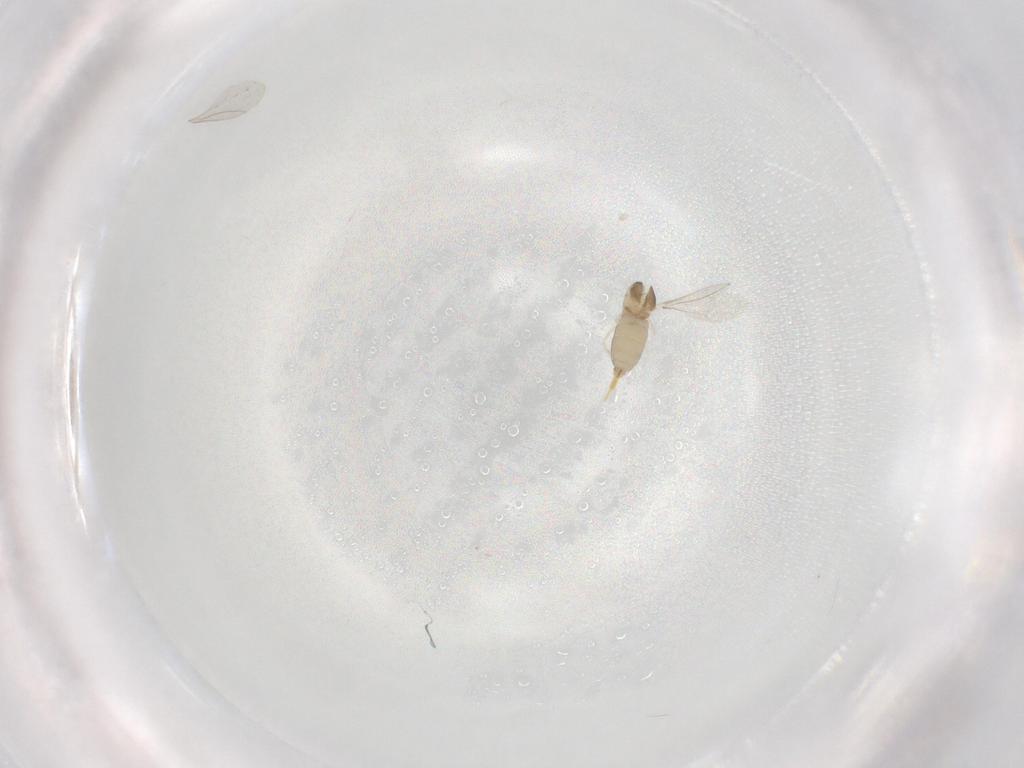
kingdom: Animalia
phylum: Arthropoda
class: Insecta
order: Diptera
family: Cecidomyiidae
